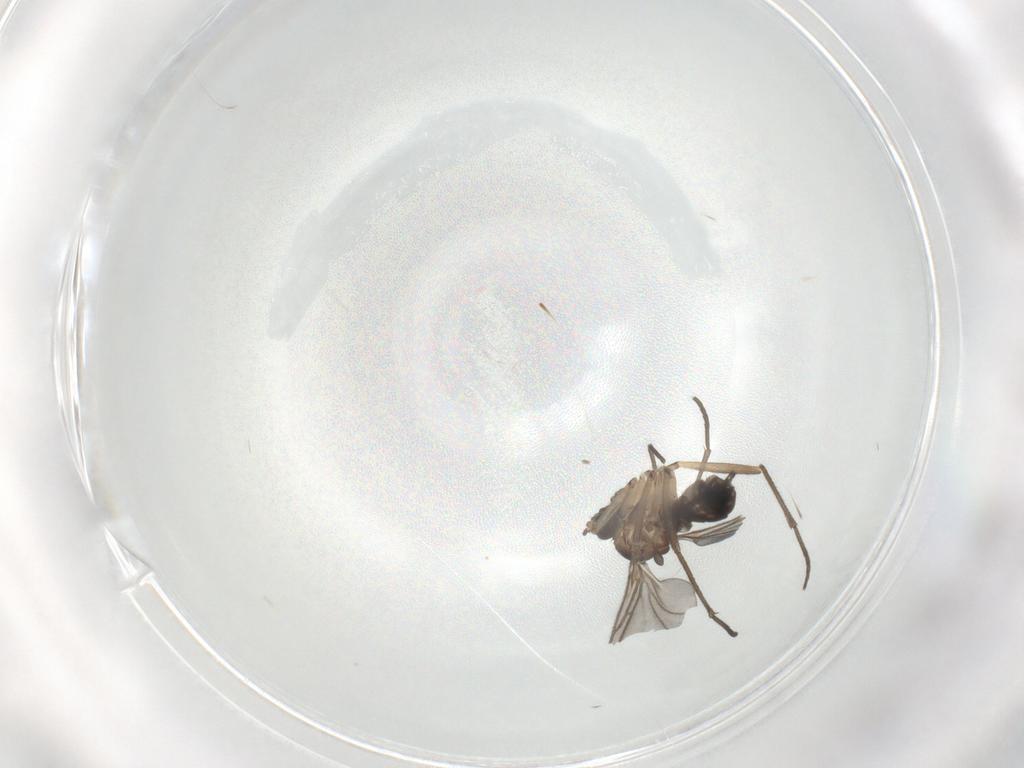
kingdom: Animalia
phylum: Arthropoda
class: Insecta
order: Diptera
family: Sciaridae
